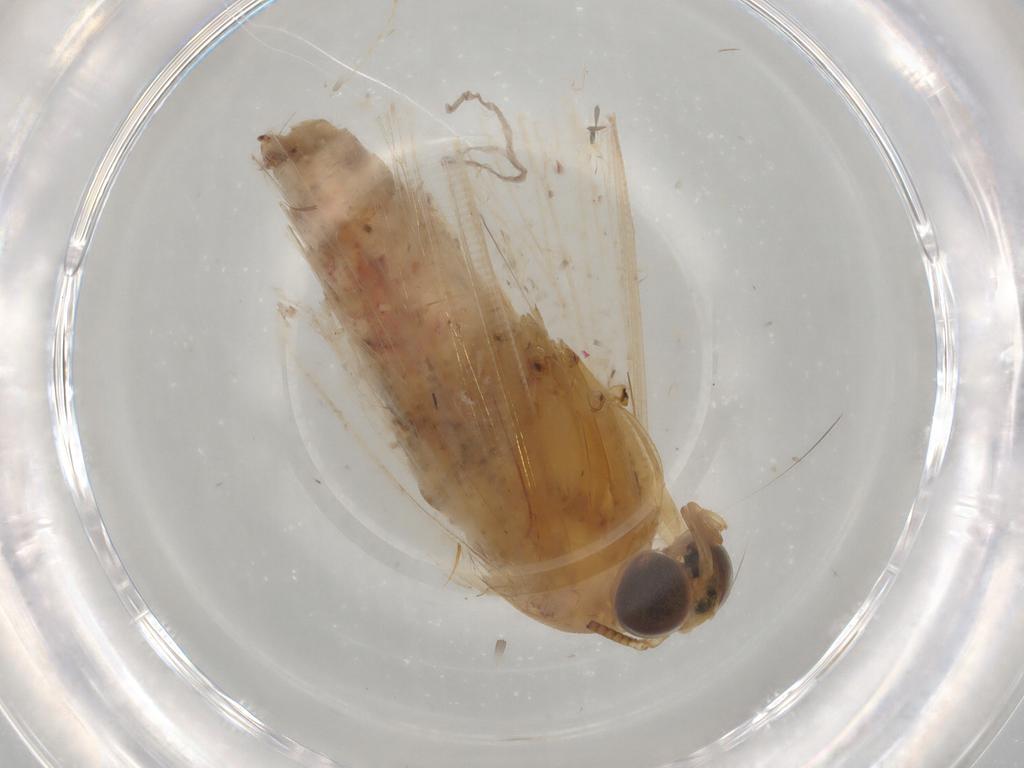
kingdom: Animalia
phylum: Arthropoda
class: Insecta
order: Lepidoptera
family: Noctuidae
